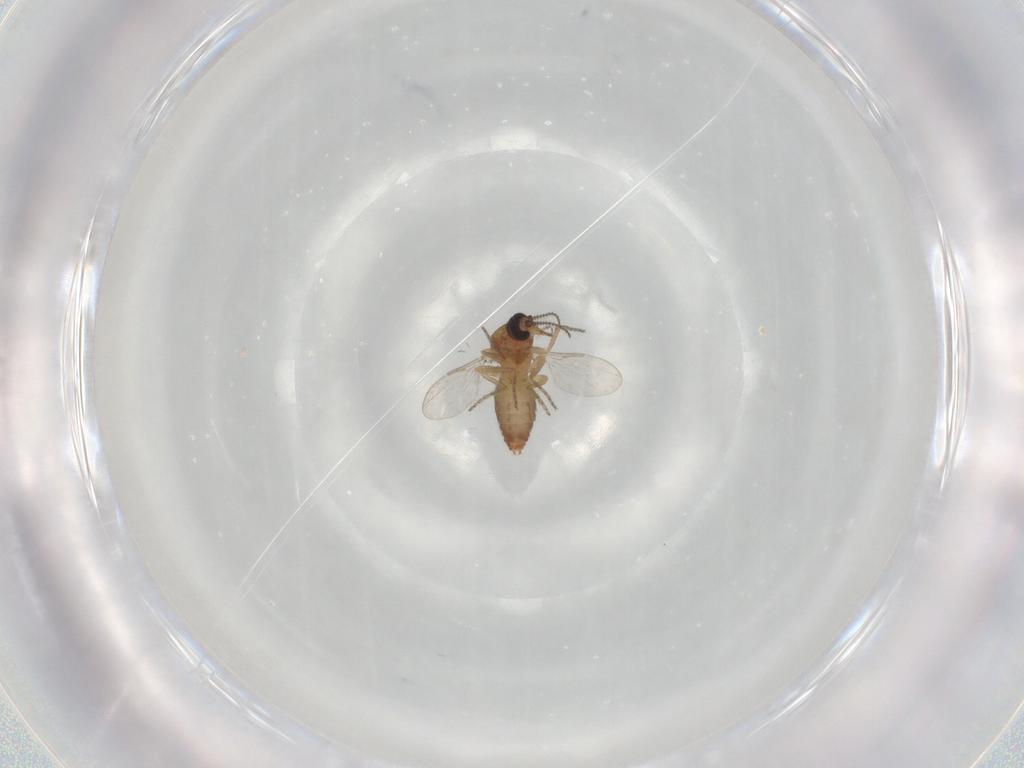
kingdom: Animalia
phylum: Arthropoda
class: Insecta
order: Diptera
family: Ceratopogonidae
